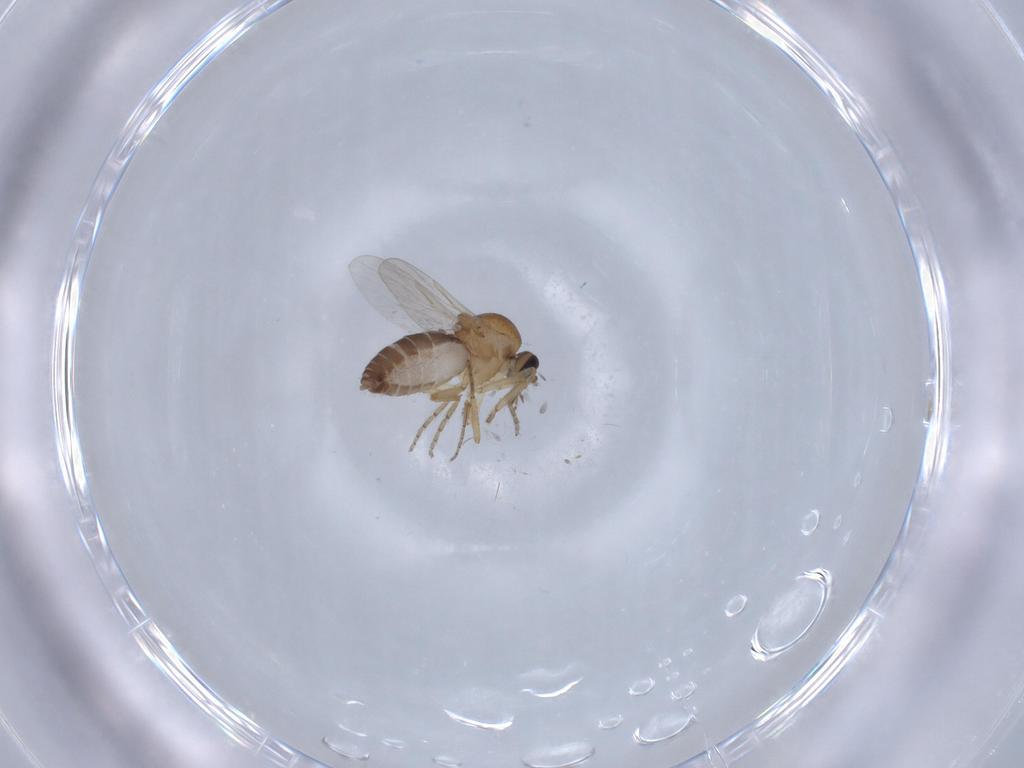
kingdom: Animalia
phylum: Arthropoda
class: Insecta
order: Diptera
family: Ceratopogonidae
